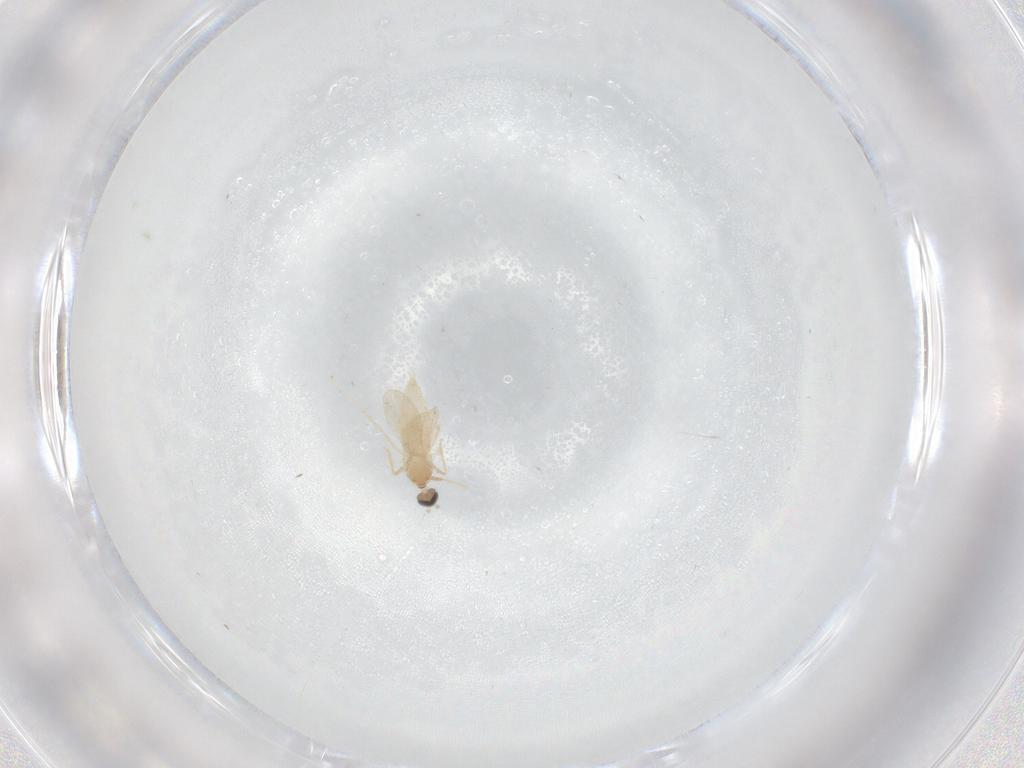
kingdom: Animalia
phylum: Arthropoda
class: Insecta
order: Diptera
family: Cecidomyiidae
